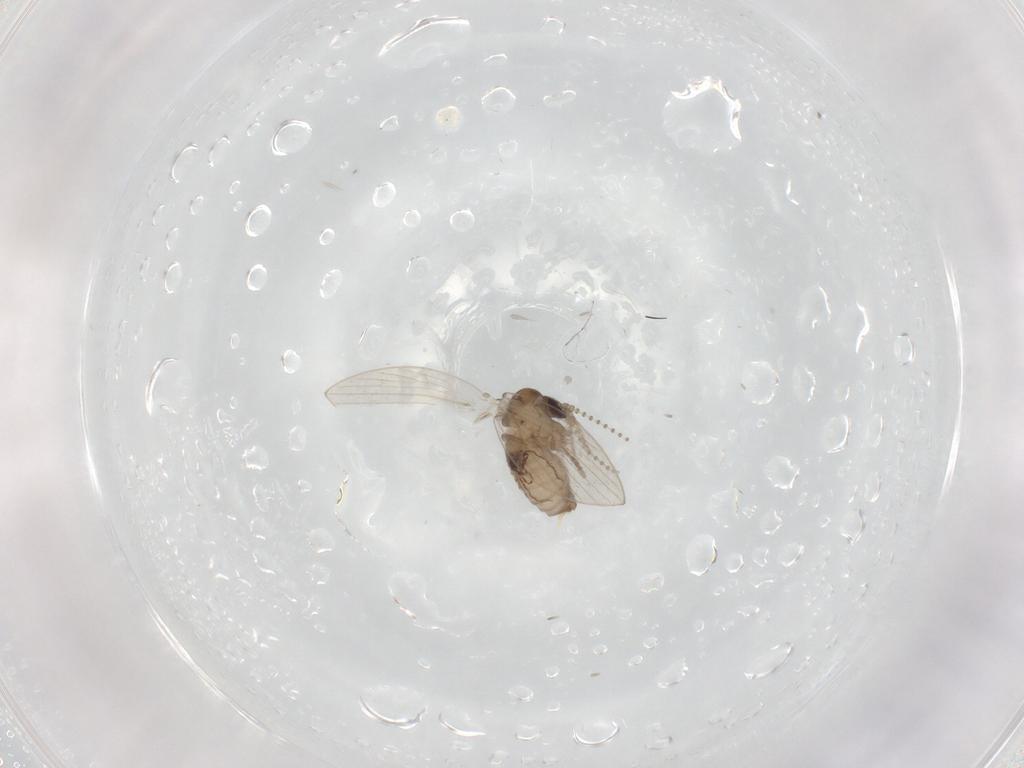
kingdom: Animalia
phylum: Arthropoda
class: Insecta
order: Diptera
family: Psychodidae
